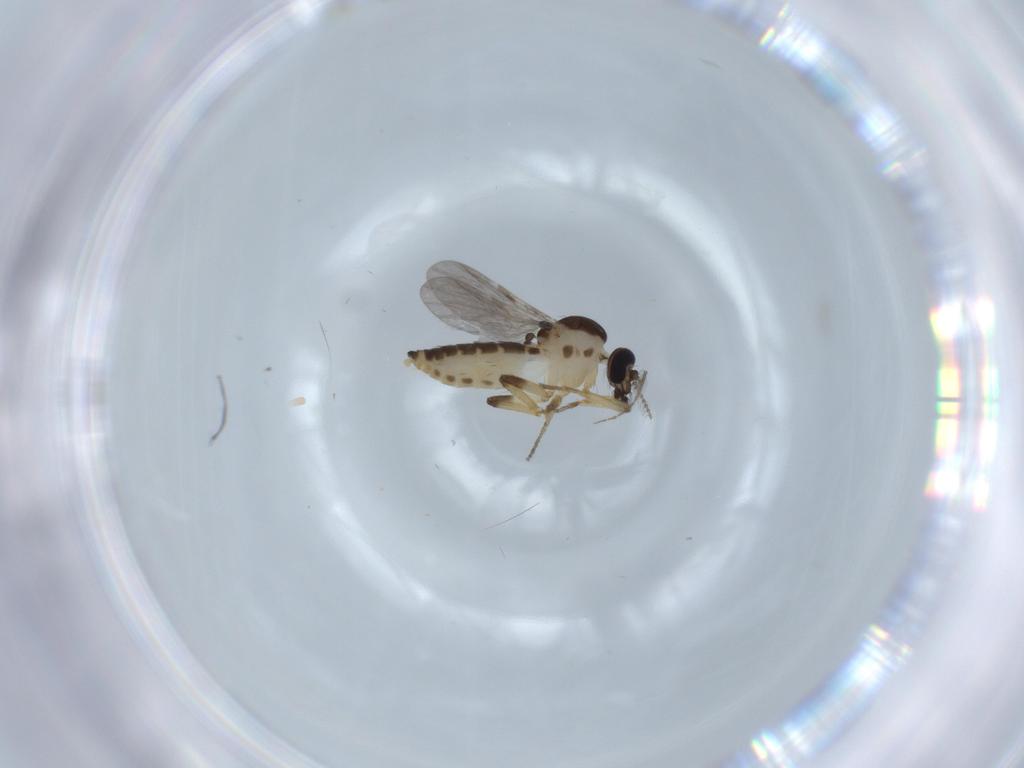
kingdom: Animalia
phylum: Arthropoda
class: Insecta
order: Diptera
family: Ceratopogonidae
